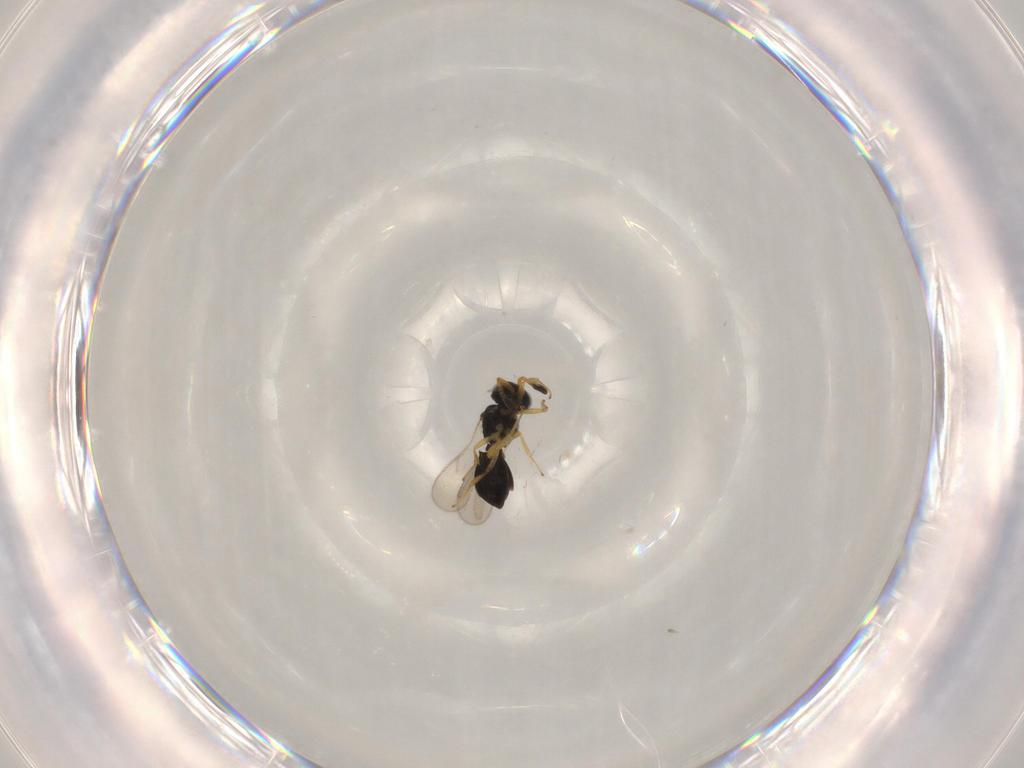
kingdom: Animalia
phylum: Arthropoda
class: Insecta
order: Hymenoptera
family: Scelionidae
